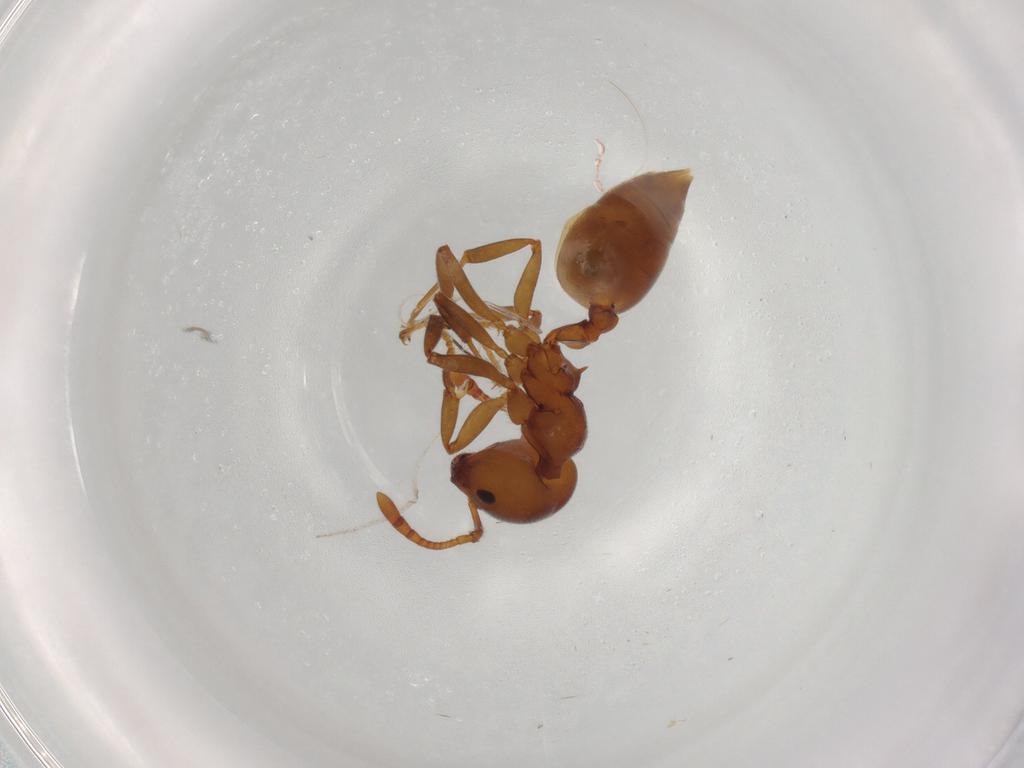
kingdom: Animalia
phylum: Arthropoda
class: Insecta
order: Hymenoptera
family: Formicidae
